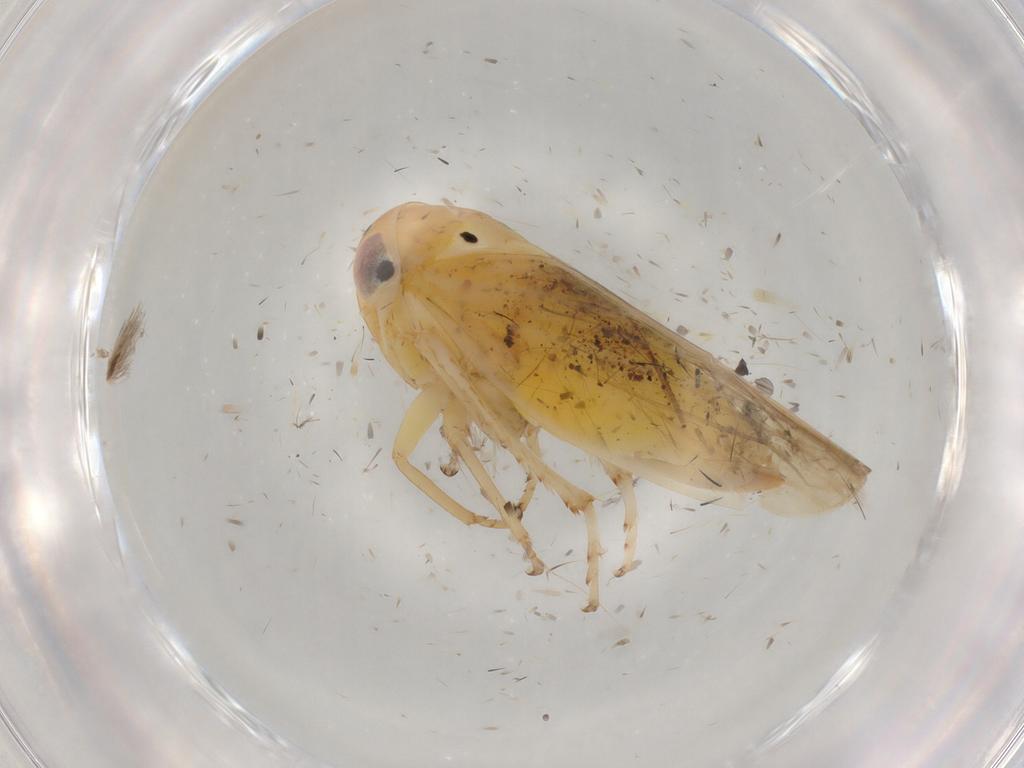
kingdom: Animalia
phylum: Arthropoda
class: Insecta
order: Hemiptera
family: Cicadellidae
